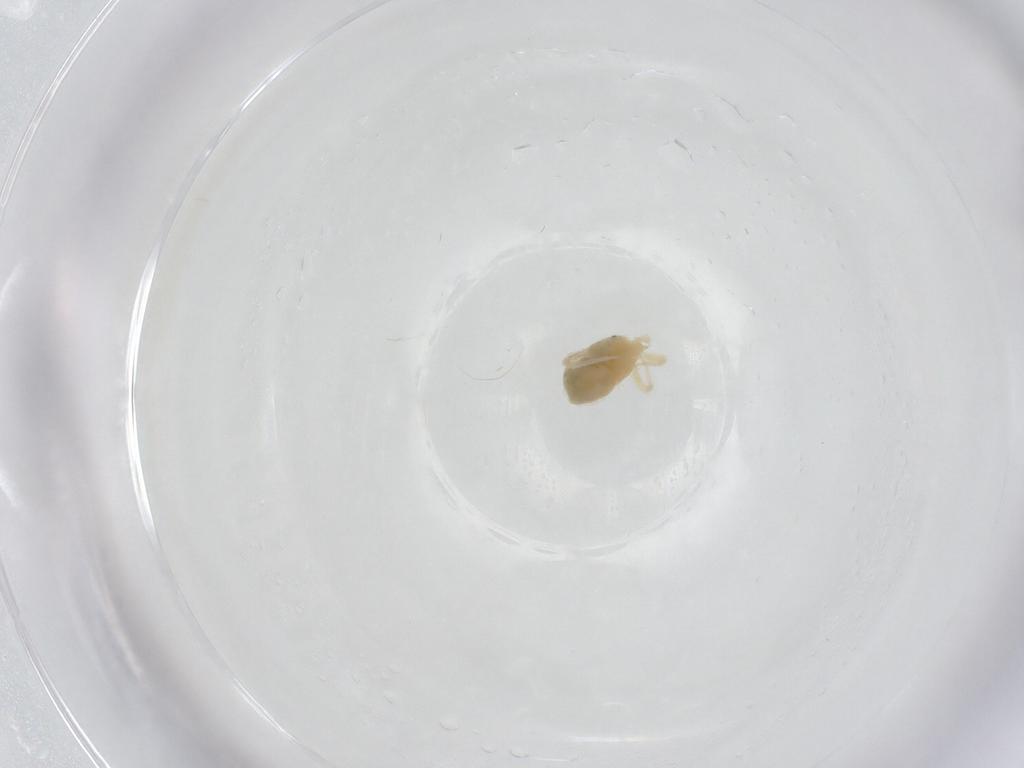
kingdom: Animalia
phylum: Arthropoda
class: Arachnida
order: Trombidiformes
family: Anystidae
